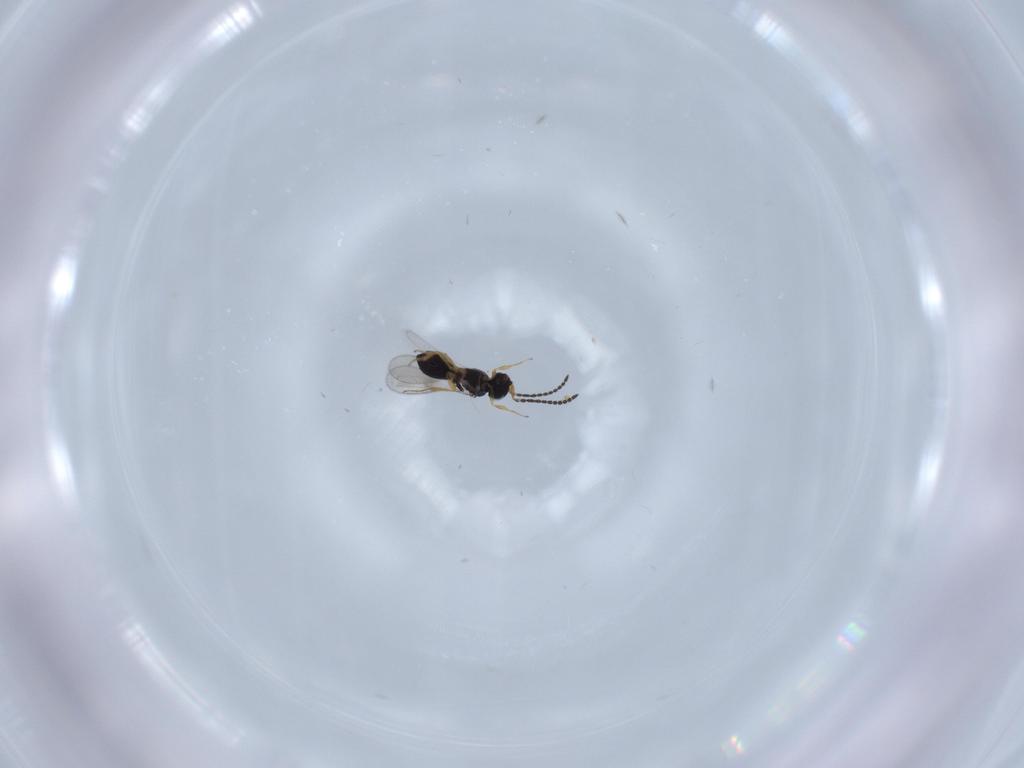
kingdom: Animalia
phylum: Arthropoda
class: Insecta
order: Hymenoptera
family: Scelionidae
